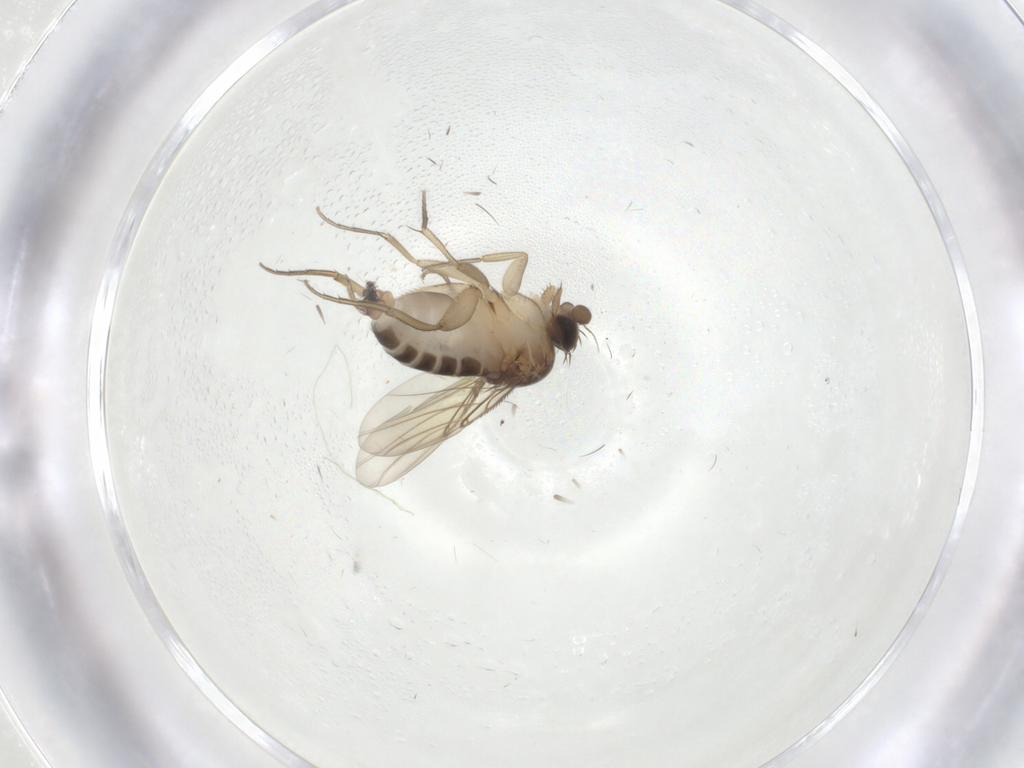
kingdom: Animalia
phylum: Arthropoda
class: Insecta
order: Diptera
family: Phoridae
